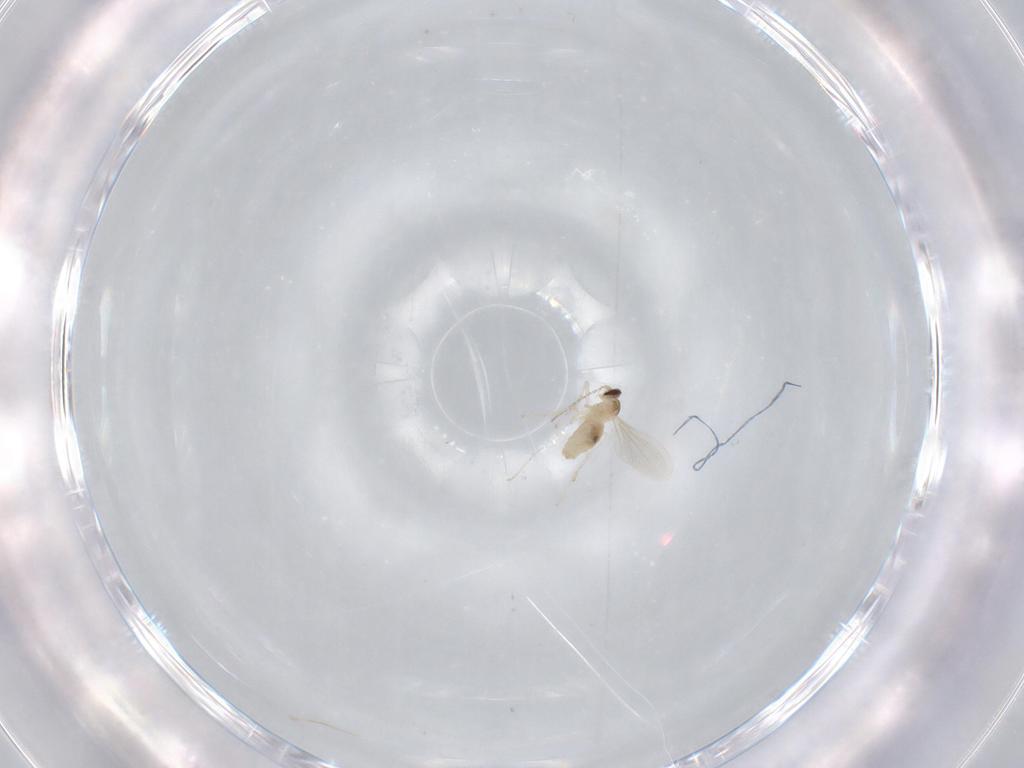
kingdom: Animalia
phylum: Arthropoda
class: Insecta
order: Diptera
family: Cecidomyiidae
